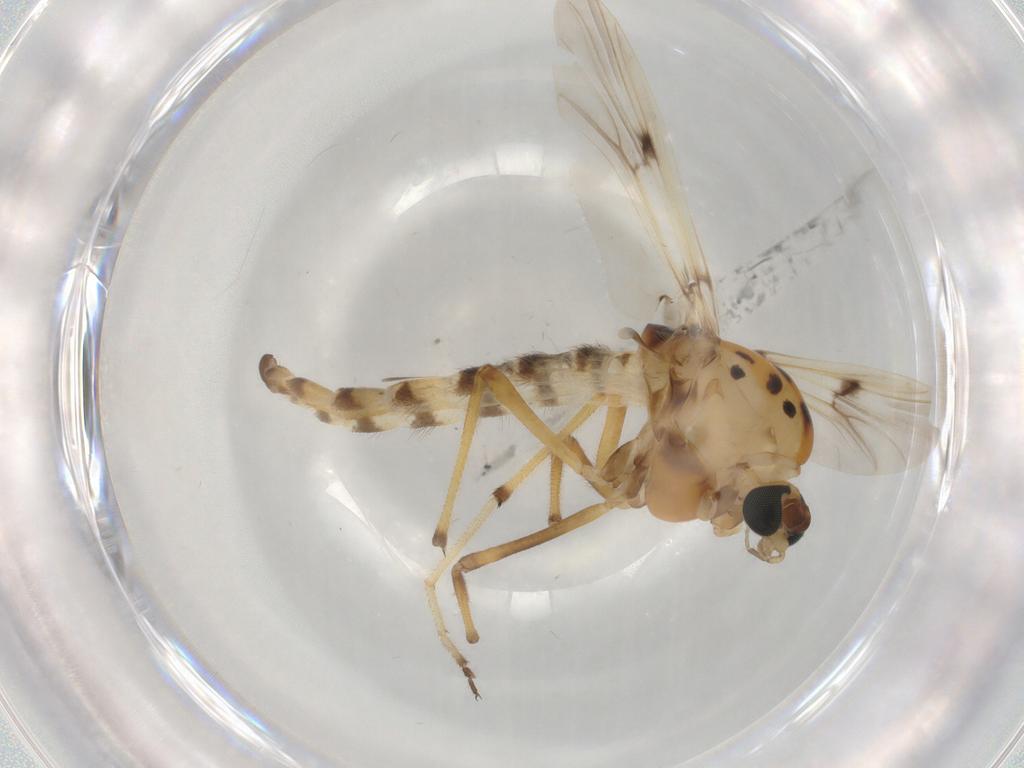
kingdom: Animalia
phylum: Arthropoda
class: Insecta
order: Diptera
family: Chironomidae
